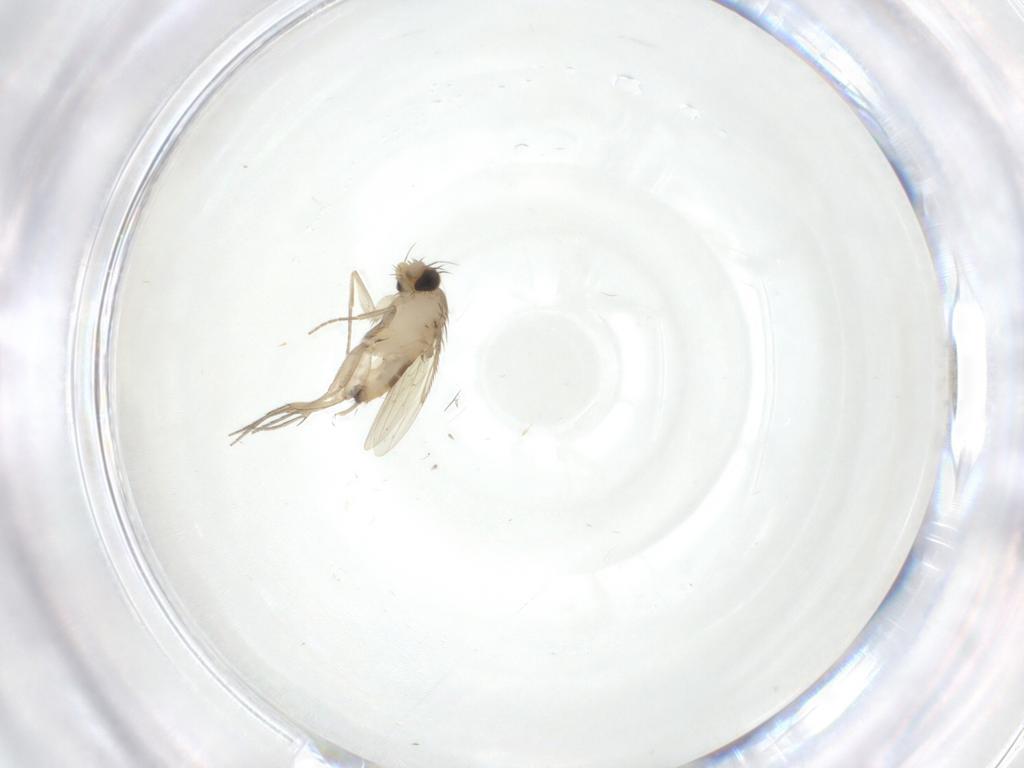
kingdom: Animalia
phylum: Arthropoda
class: Insecta
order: Diptera
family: Phoridae
